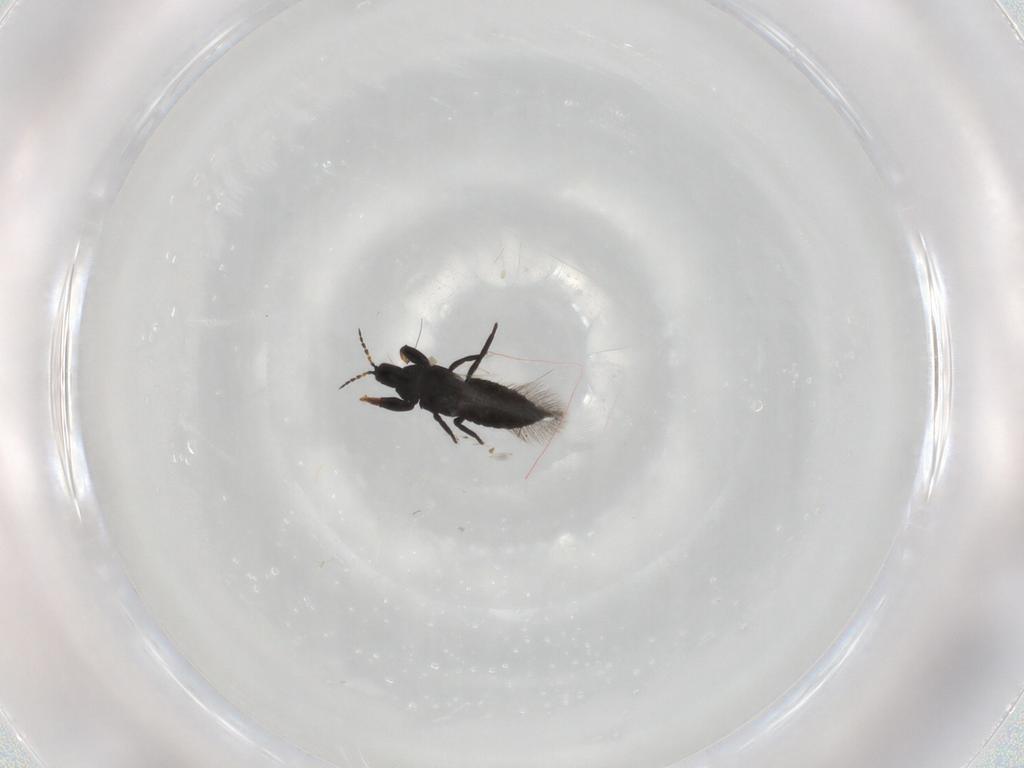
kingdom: Animalia
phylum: Arthropoda
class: Insecta
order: Thysanoptera
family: Phlaeothripidae
